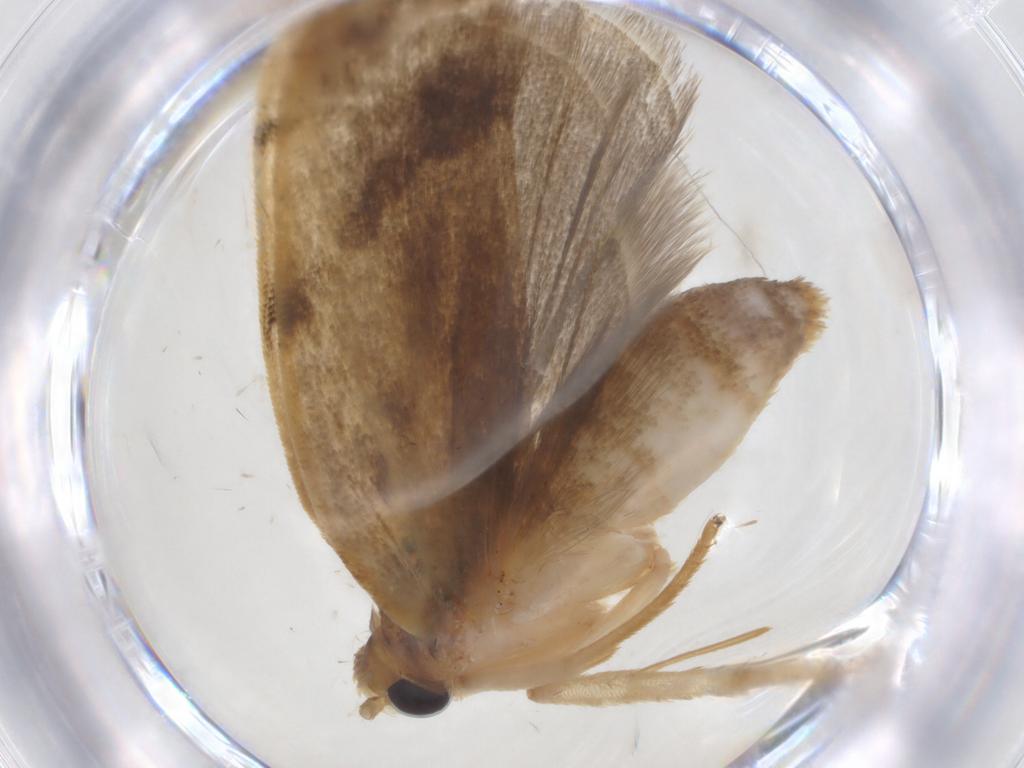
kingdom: Animalia
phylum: Arthropoda
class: Insecta
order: Lepidoptera
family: Depressariidae
